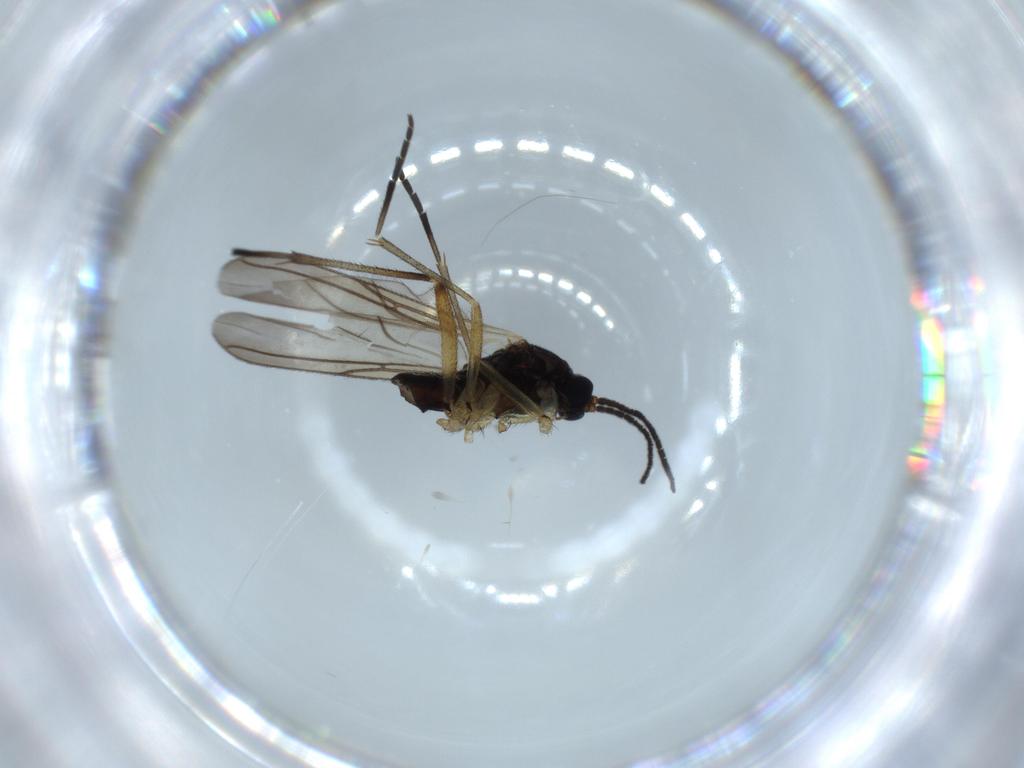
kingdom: Animalia
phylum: Arthropoda
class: Insecta
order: Diptera
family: Sciaridae
